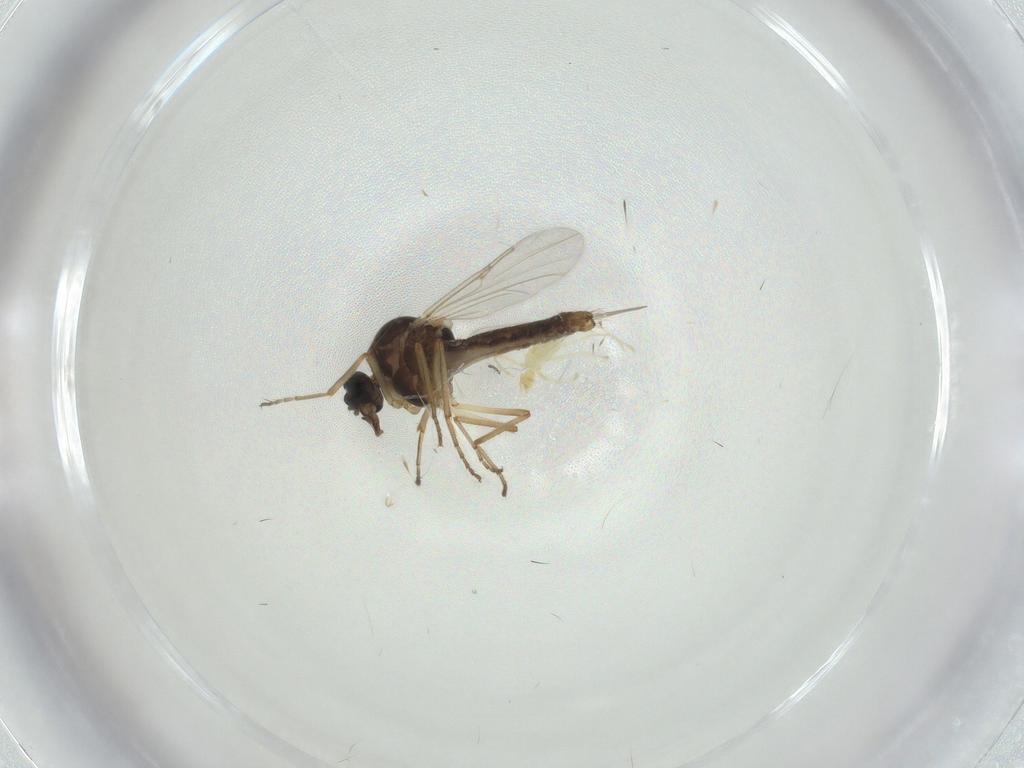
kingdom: Animalia
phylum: Arthropoda
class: Insecta
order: Diptera
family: Ceratopogonidae
